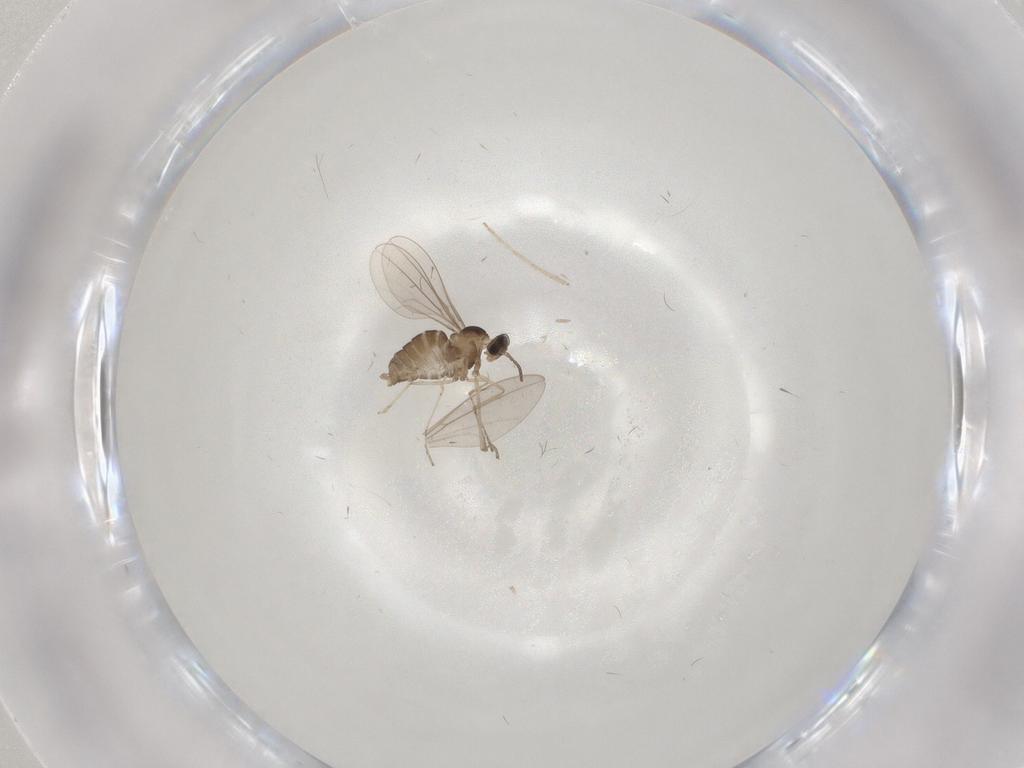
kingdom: Animalia
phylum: Arthropoda
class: Insecta
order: Diptera
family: Cecidomyiidae
